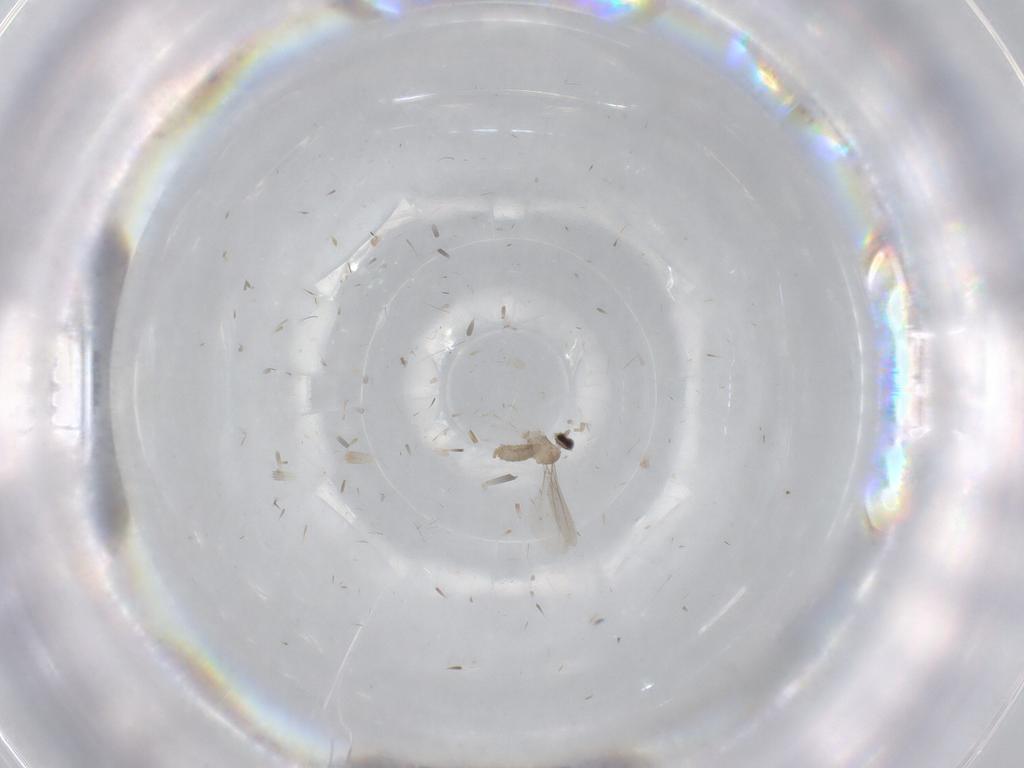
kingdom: Animalia
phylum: Arthropoda
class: Insecta
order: Diptera
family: Cecidomyiidae
